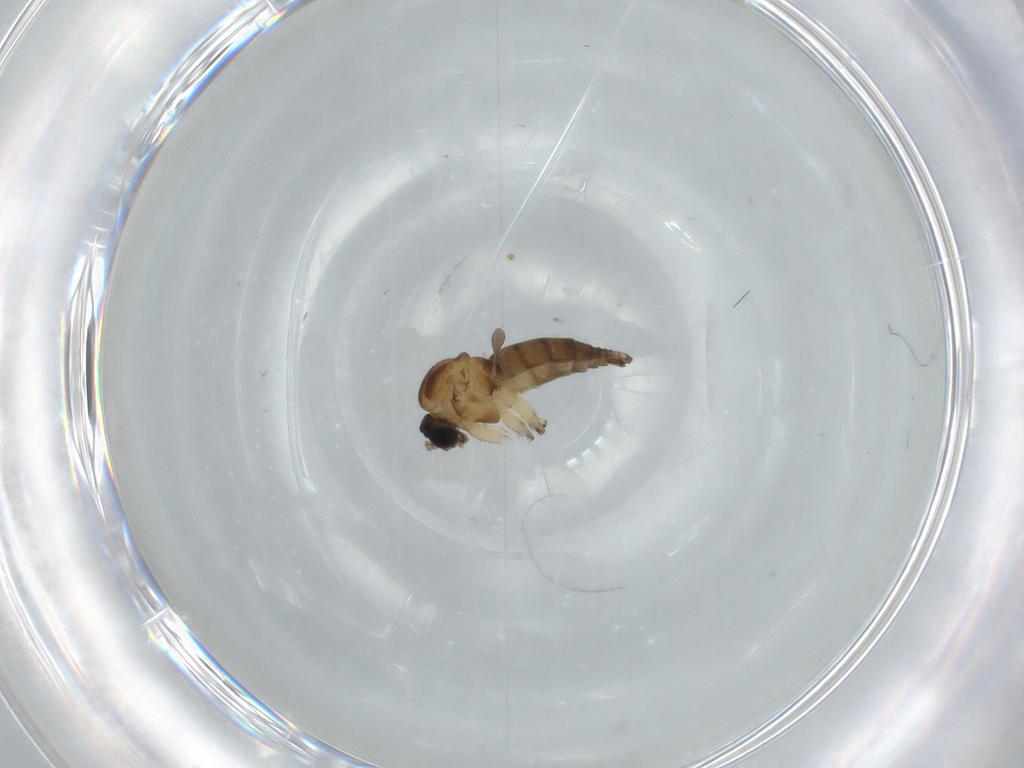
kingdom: Animalia
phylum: Arthropoda
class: Insecta
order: Diptera
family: Sciaridae
